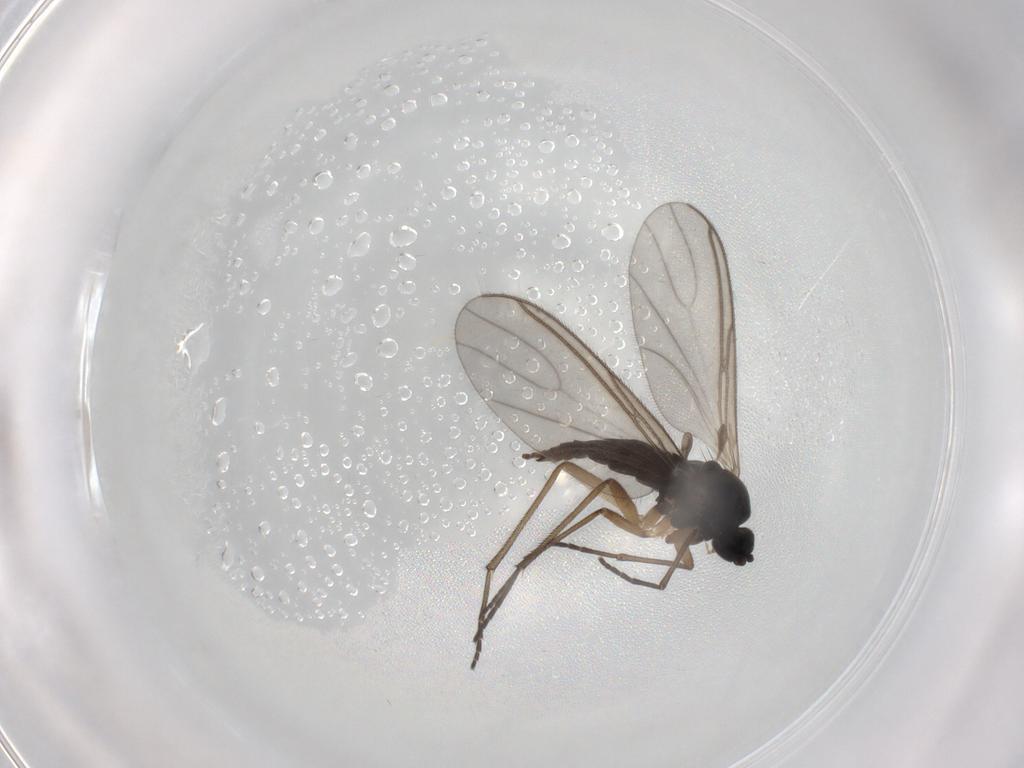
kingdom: Animalia
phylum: Arthropoda
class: Insecta
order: Diptera
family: Sciaridae
